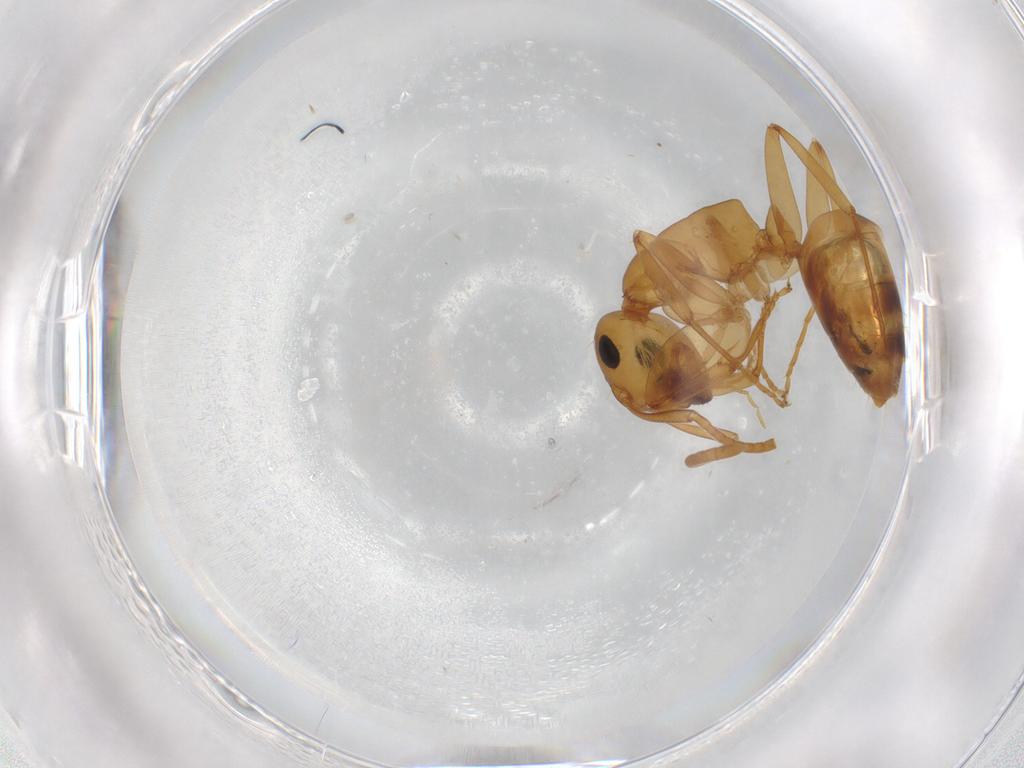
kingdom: Animalia
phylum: Arthropoda
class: Insecta
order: Hymenoptera
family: Formicidae
